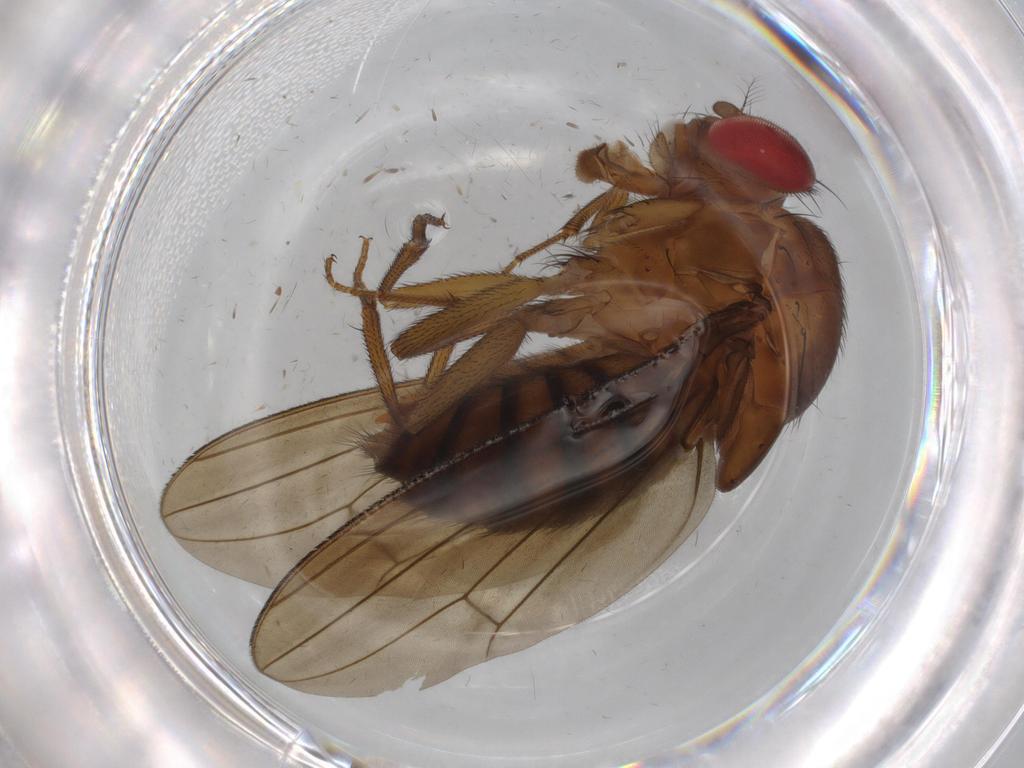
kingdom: Animalia
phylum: Arthropoda
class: Insecta
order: Diptera
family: Drosophilidae
